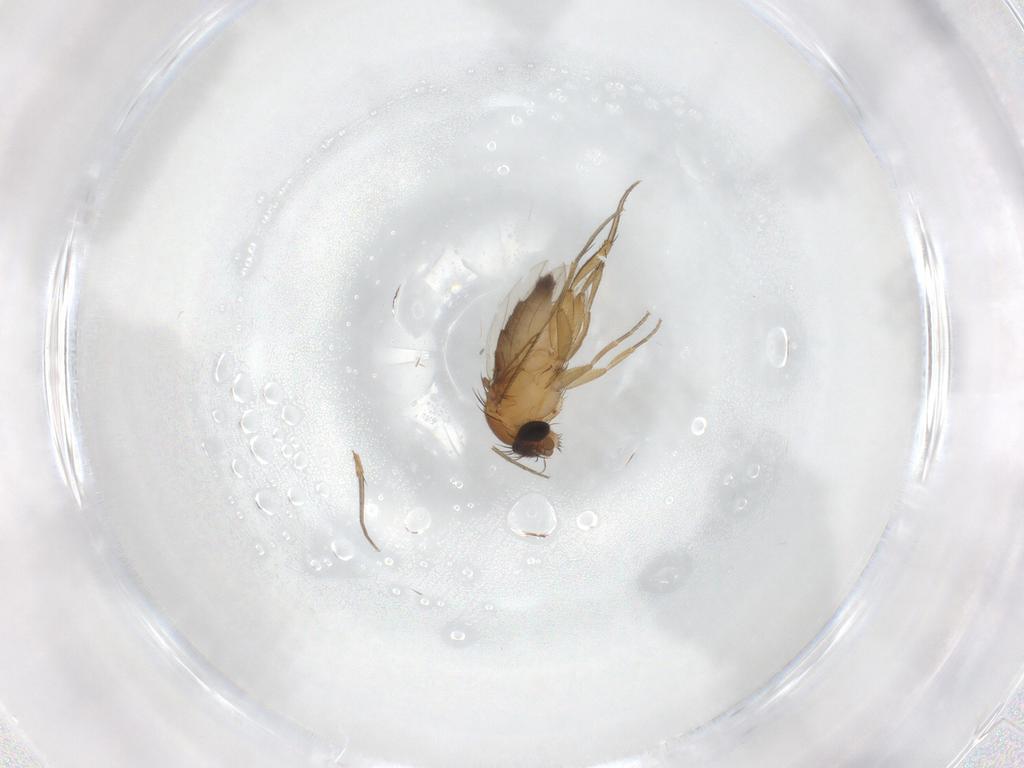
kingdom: Animalia
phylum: Arthropoda
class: Insecta
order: Diptera
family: Phoridae
